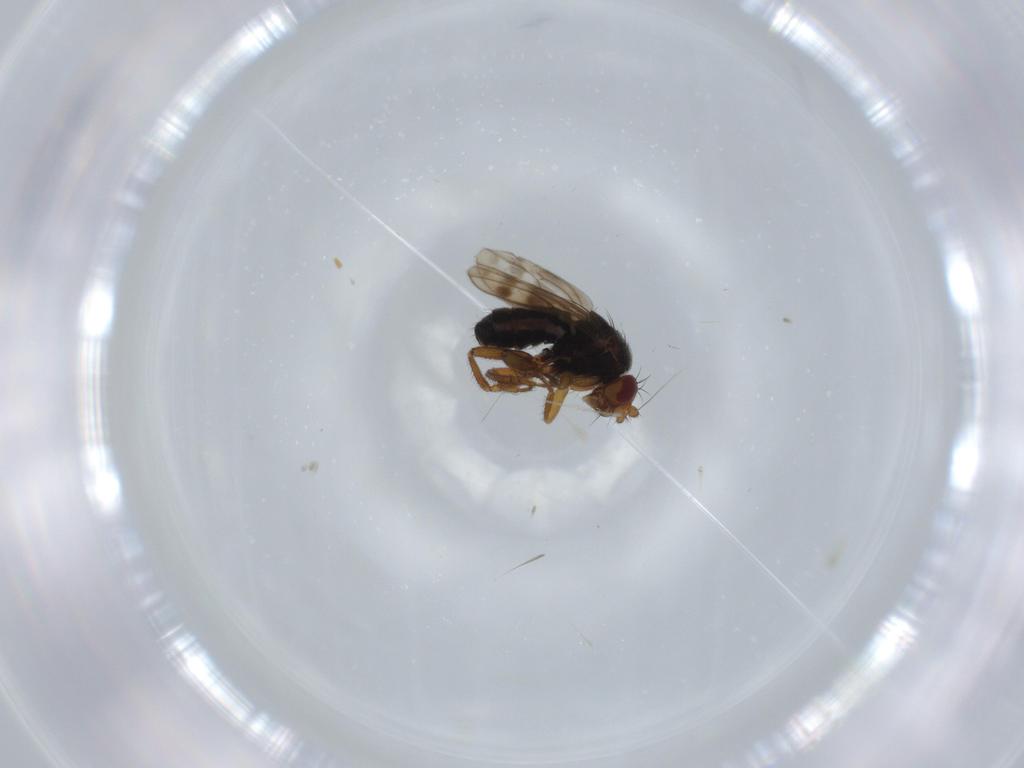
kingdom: Animalia
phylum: Arthropoda
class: Insecta
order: Diptera
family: Sphaeroceridae
